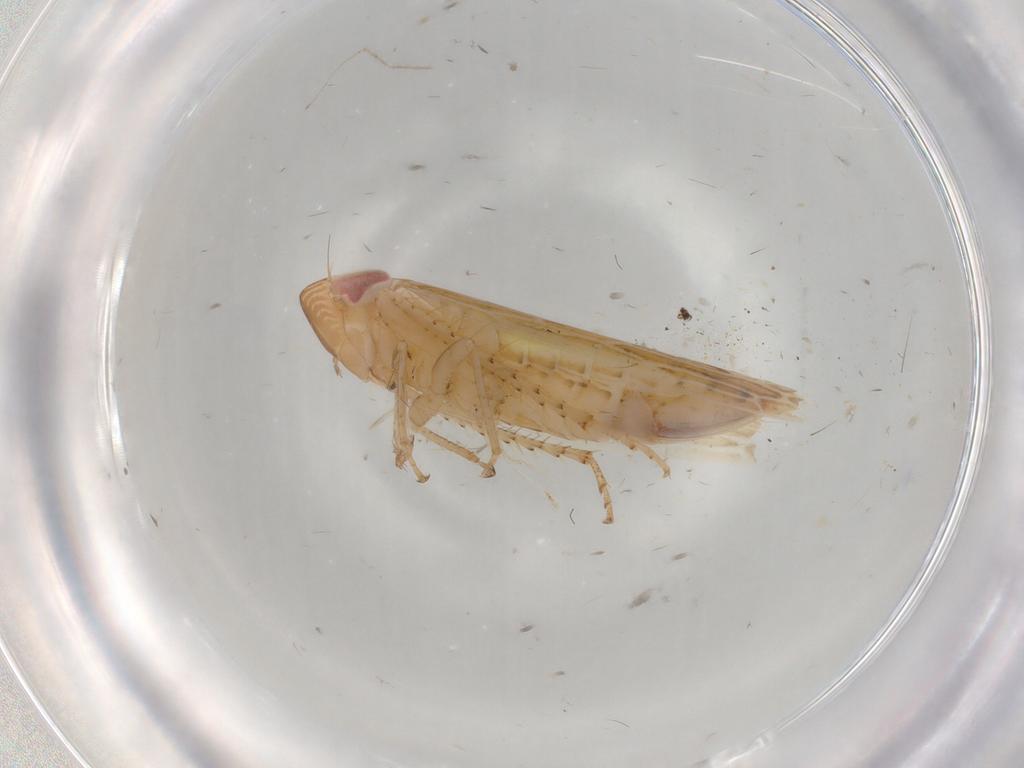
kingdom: Animalia
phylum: Arthropoda
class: Insecta
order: Hemiptera
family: Cicadellidae
